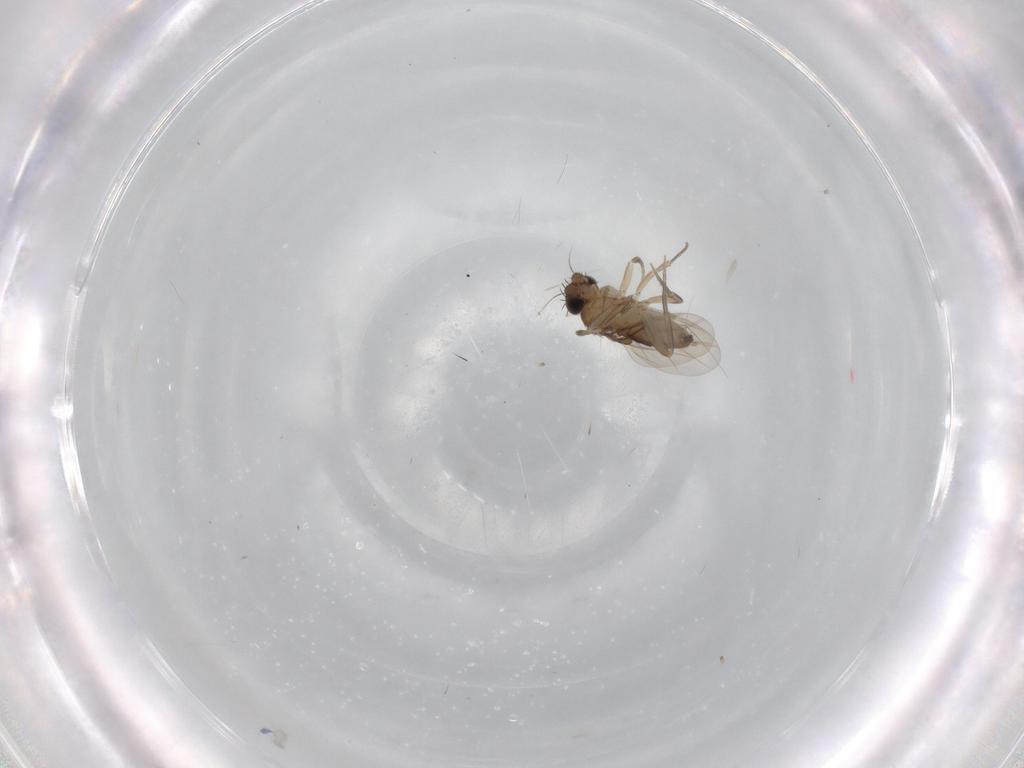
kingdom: Animalia
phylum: Arthropoda
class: Insecta
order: Diptera
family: Phoridae
